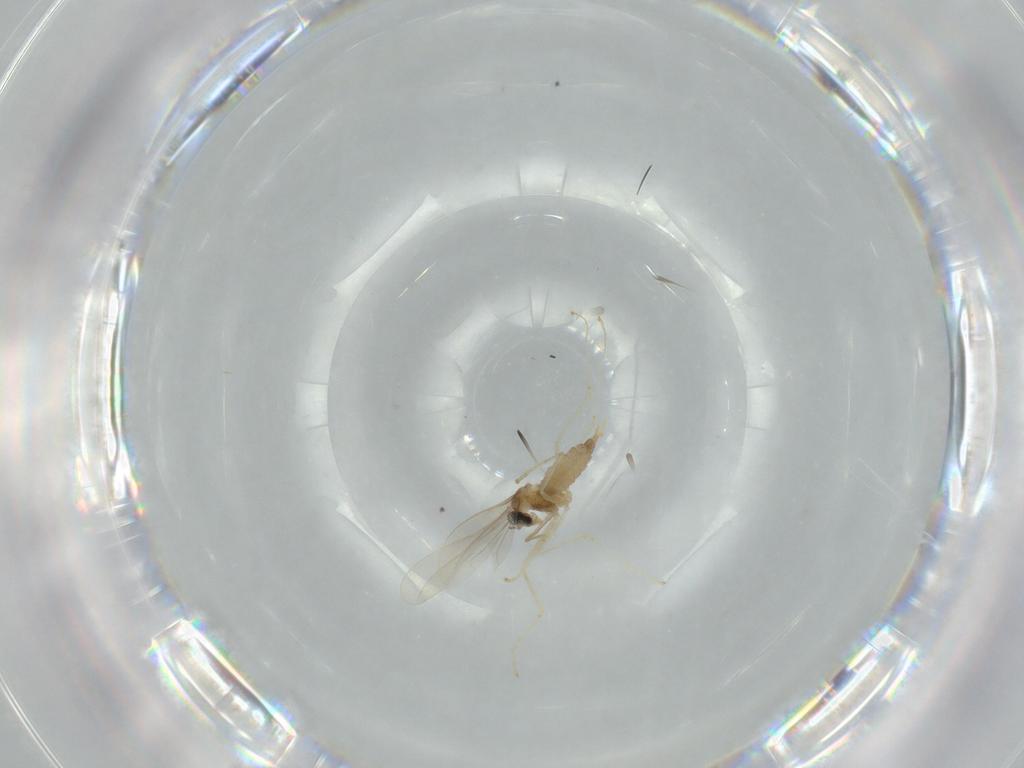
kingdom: Animalia
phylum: Arthropoda
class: Insecta
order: Diptera
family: Cecidomyiidae
